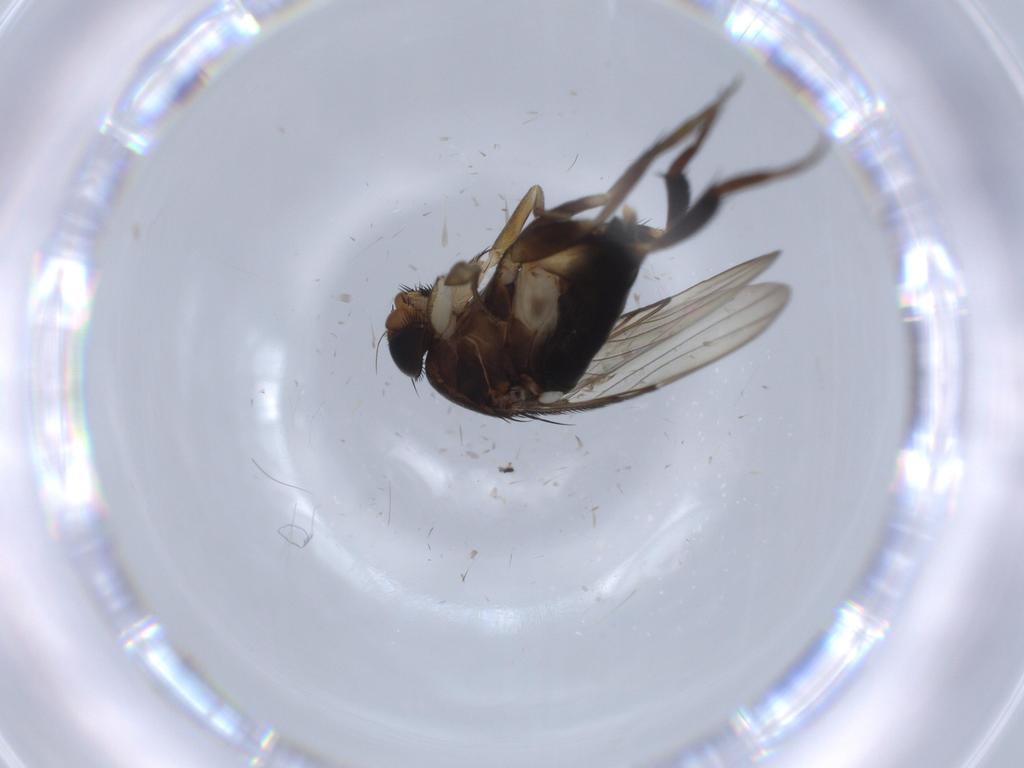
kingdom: Animalia
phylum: Arthropoda
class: Insecta
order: Diptera
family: Phoridae
